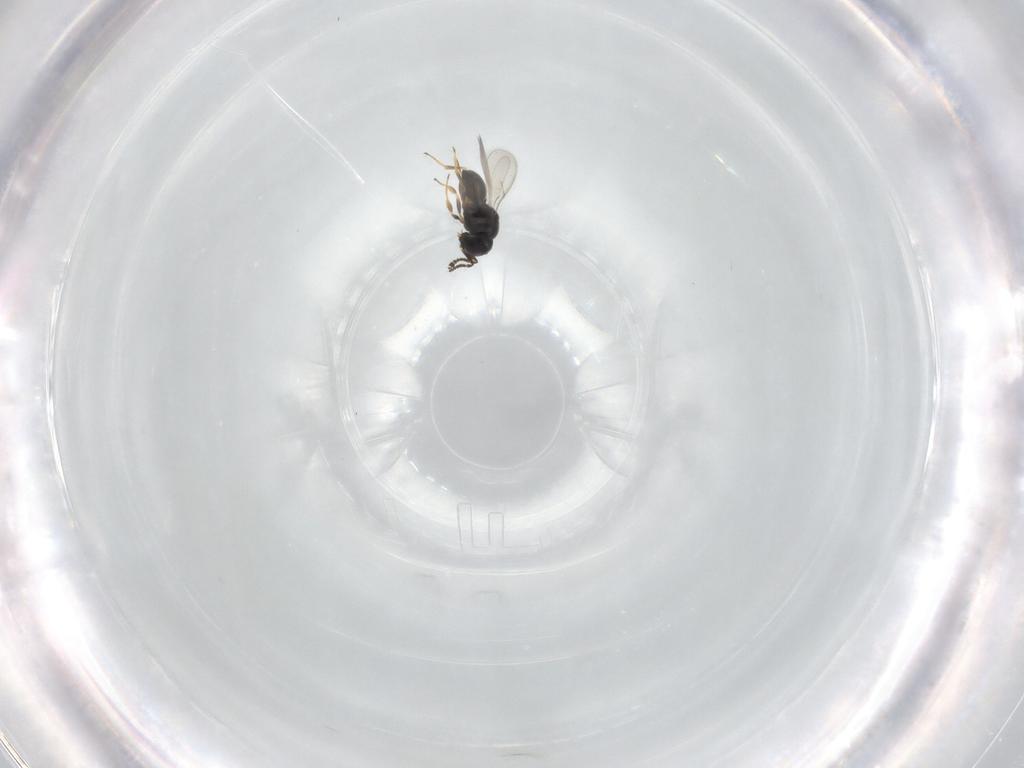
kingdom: Animalia
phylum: Arthropoda
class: Insecta
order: Hymenoptera
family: Scelionidae
